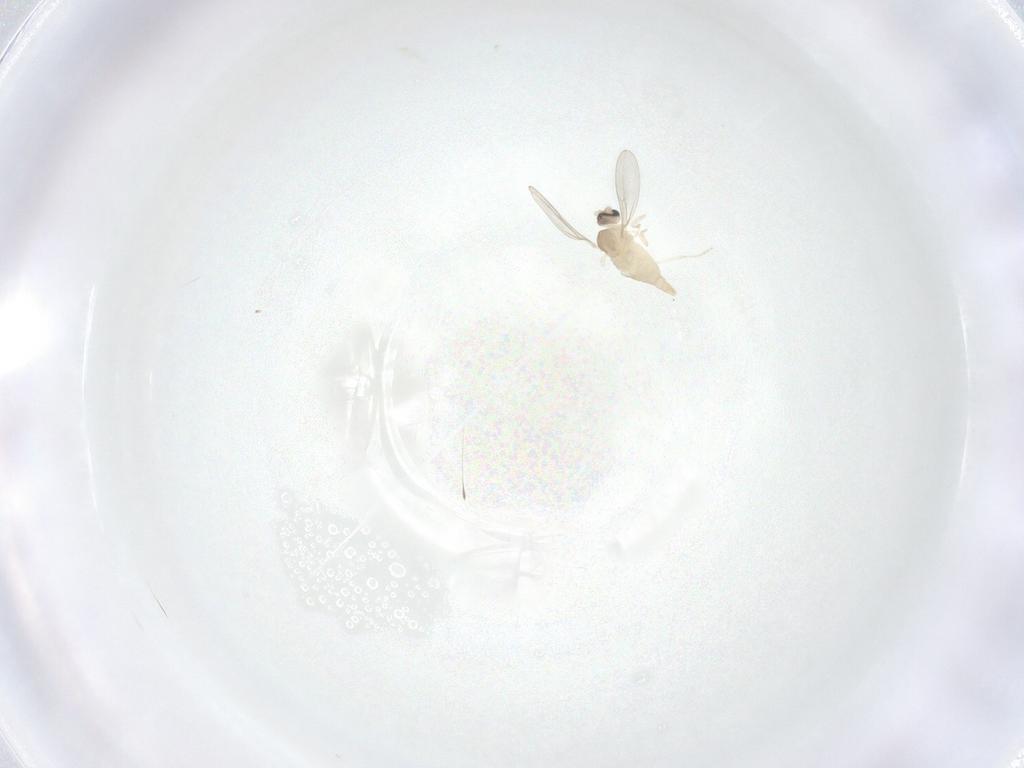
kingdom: Animalia
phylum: Arthropoda
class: Insecta
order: Diptera
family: Cecidomyiidae
